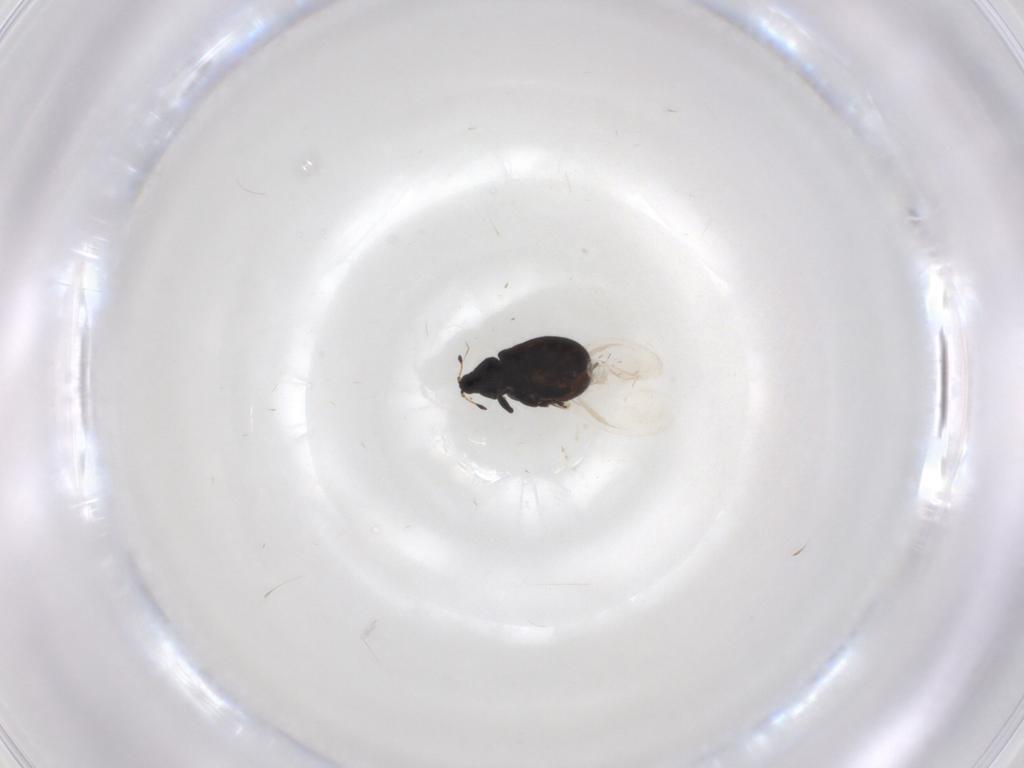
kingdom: Animalia
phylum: Arthropoda
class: Insecta
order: Coleoptera
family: Curculionidae
